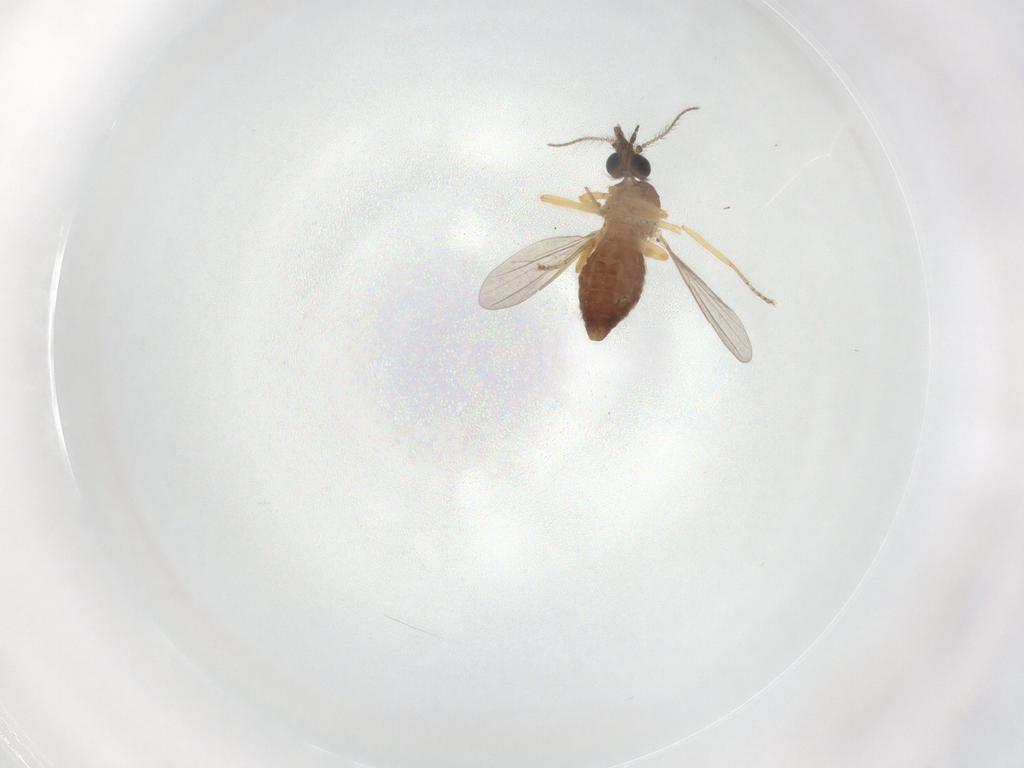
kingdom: Animalia
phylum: Arthropoda
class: Insecta
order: Diptera
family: Ceratopogonidae
